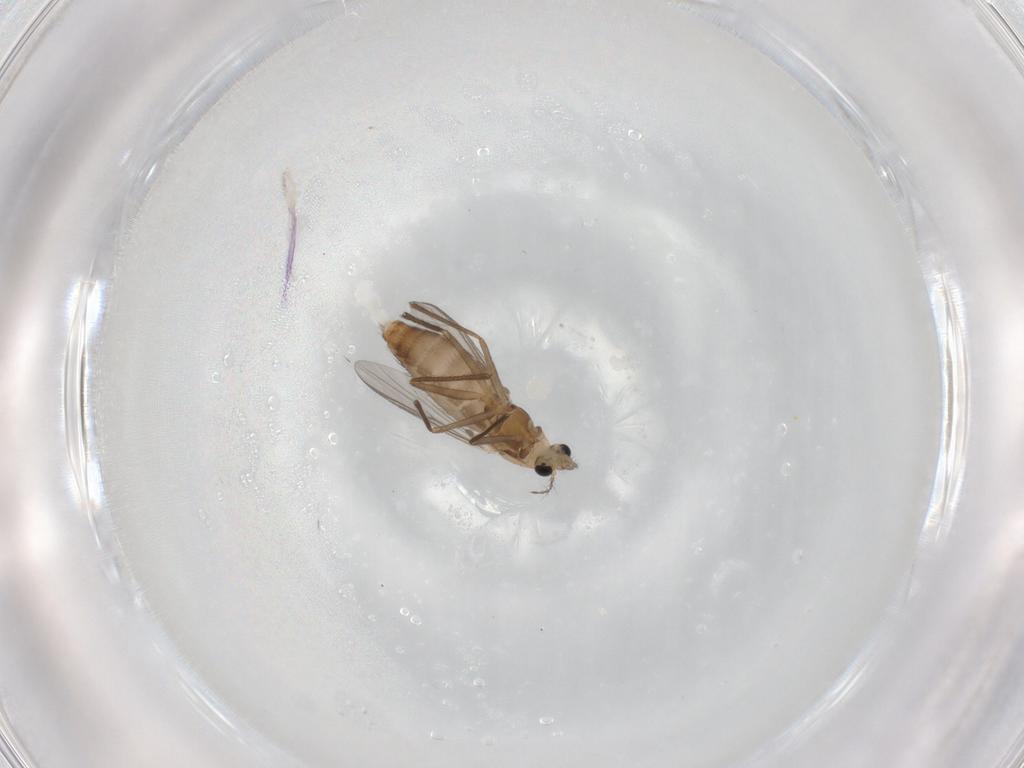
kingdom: Animalia
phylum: Arthropoda
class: Insecta
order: Diptera
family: Chironomidae
